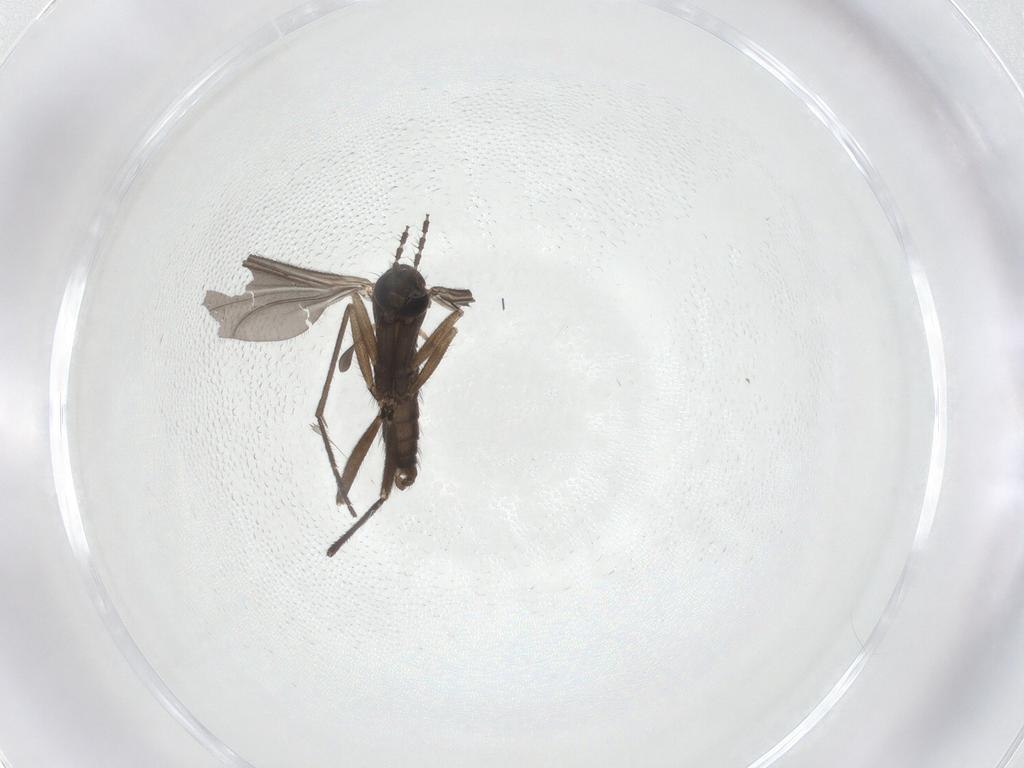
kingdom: Animalia
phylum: Arthropoda
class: Insecta
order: Diptera
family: Sciaridae
